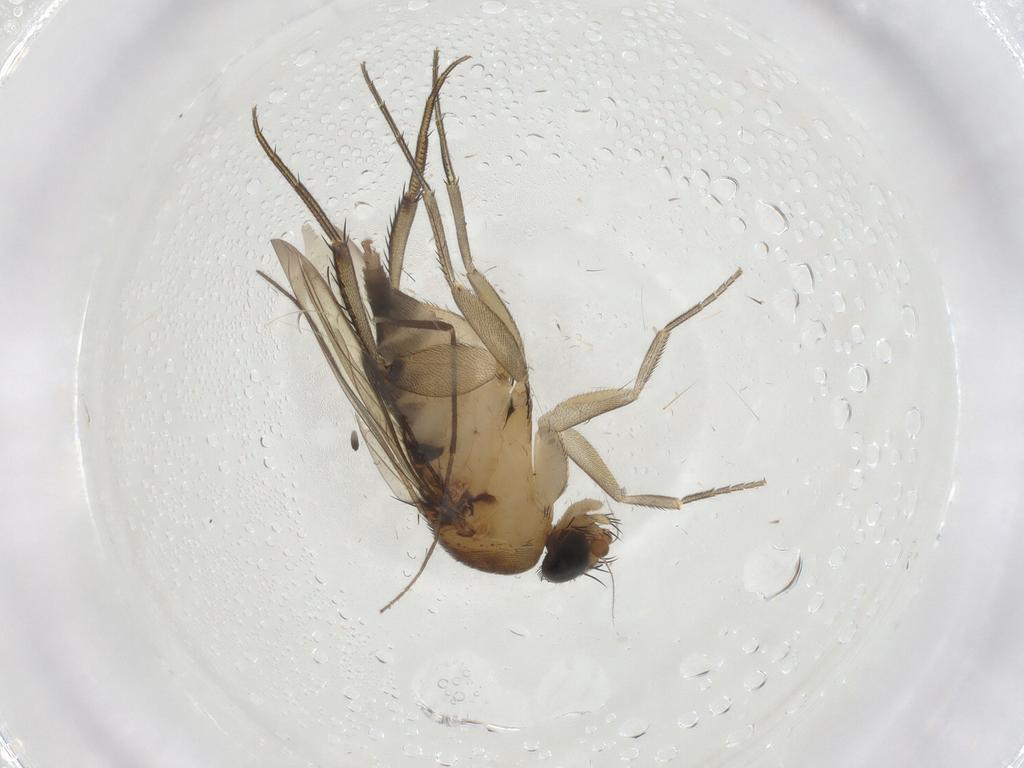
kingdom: Animalia
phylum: Arthropoda
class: Insecta
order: Diptera
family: Phoridae
